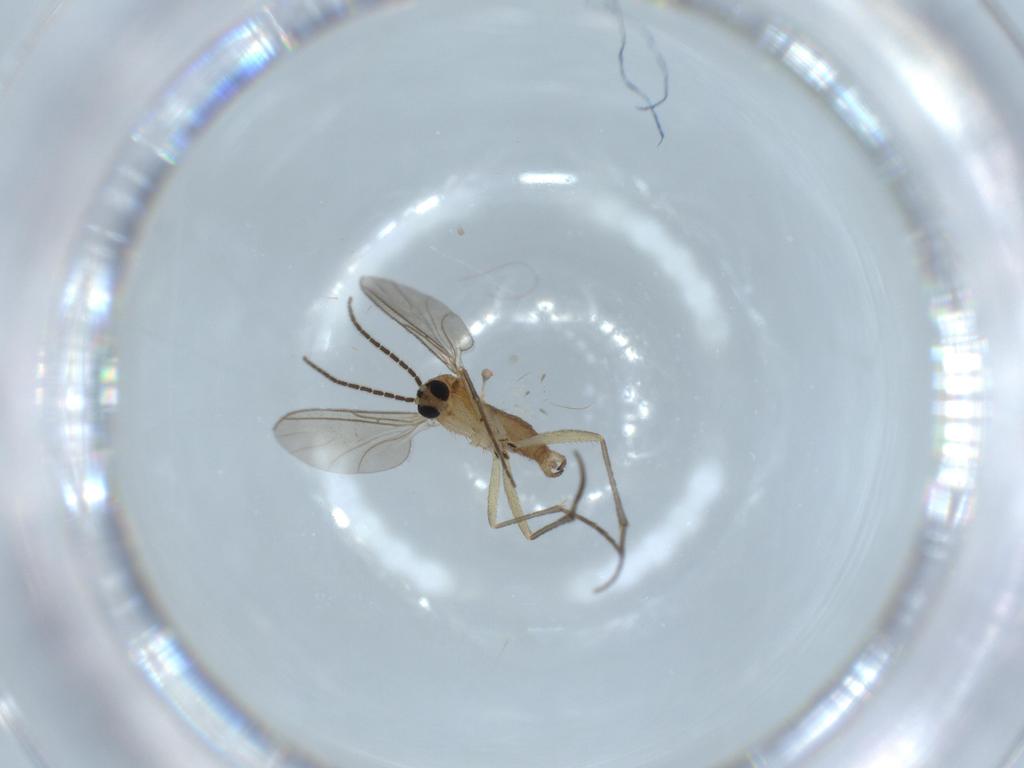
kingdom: Animalia
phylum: Arthropoda
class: Insecta
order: Diptera
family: Sciaridae
